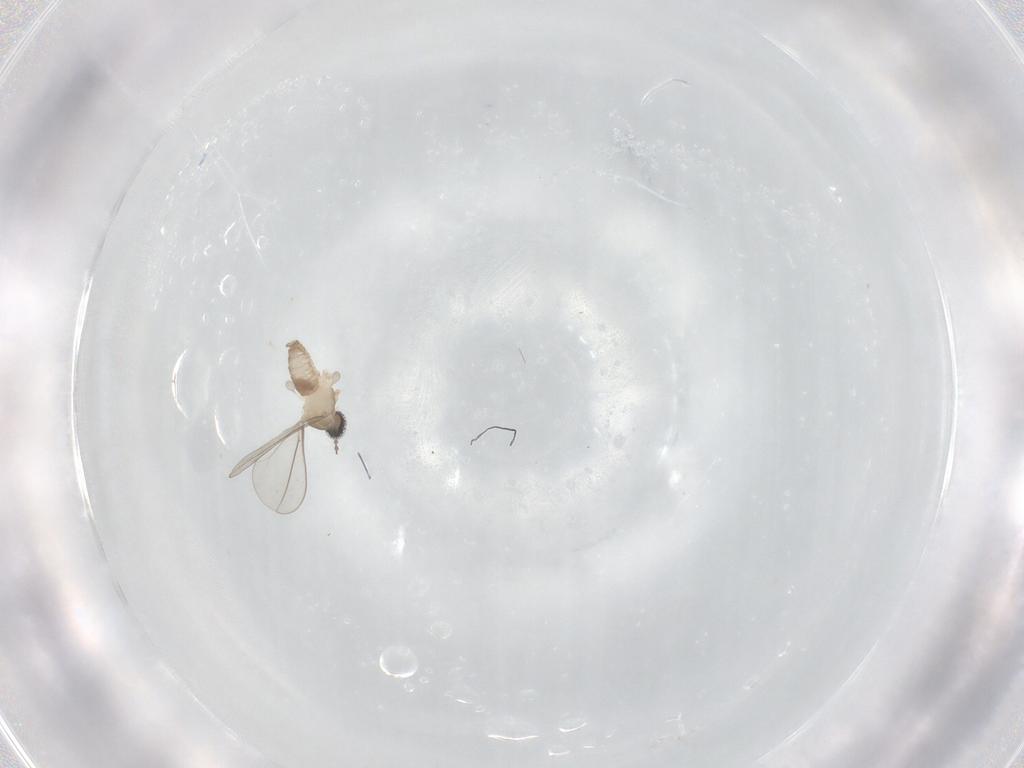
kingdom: Animalia
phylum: Arthropoda
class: Insecta
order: Diptera
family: Cecidomyiidae
